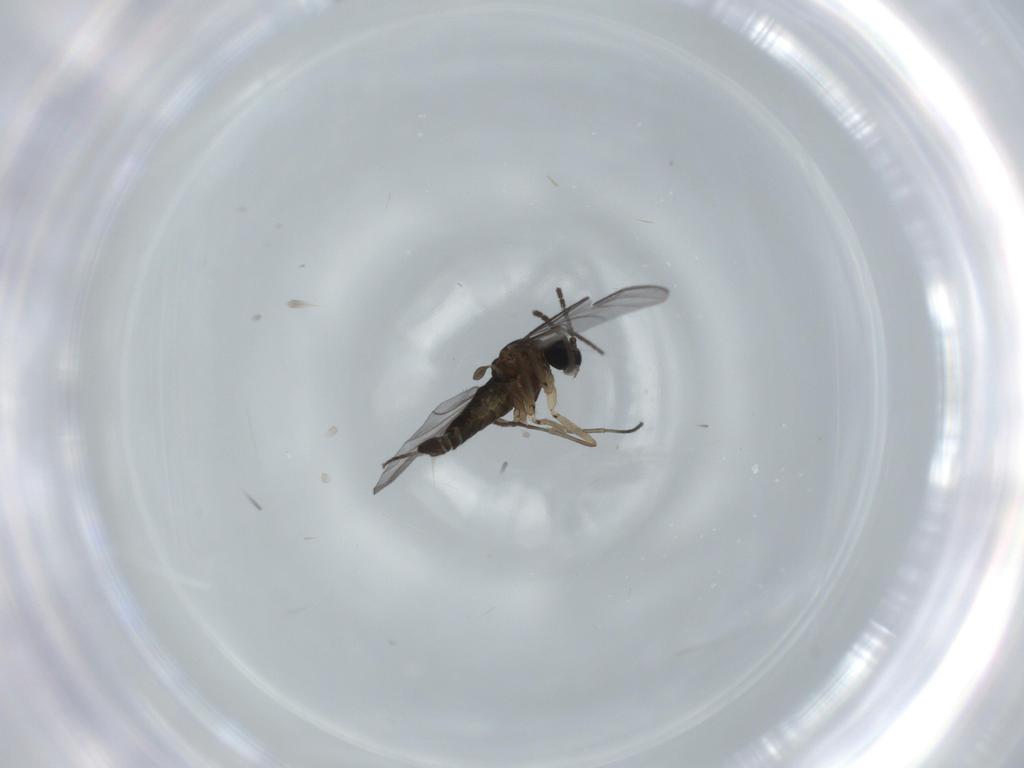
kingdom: Animalia
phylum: Arthropoda
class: Insecta
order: Diptera
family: Sciaridae
